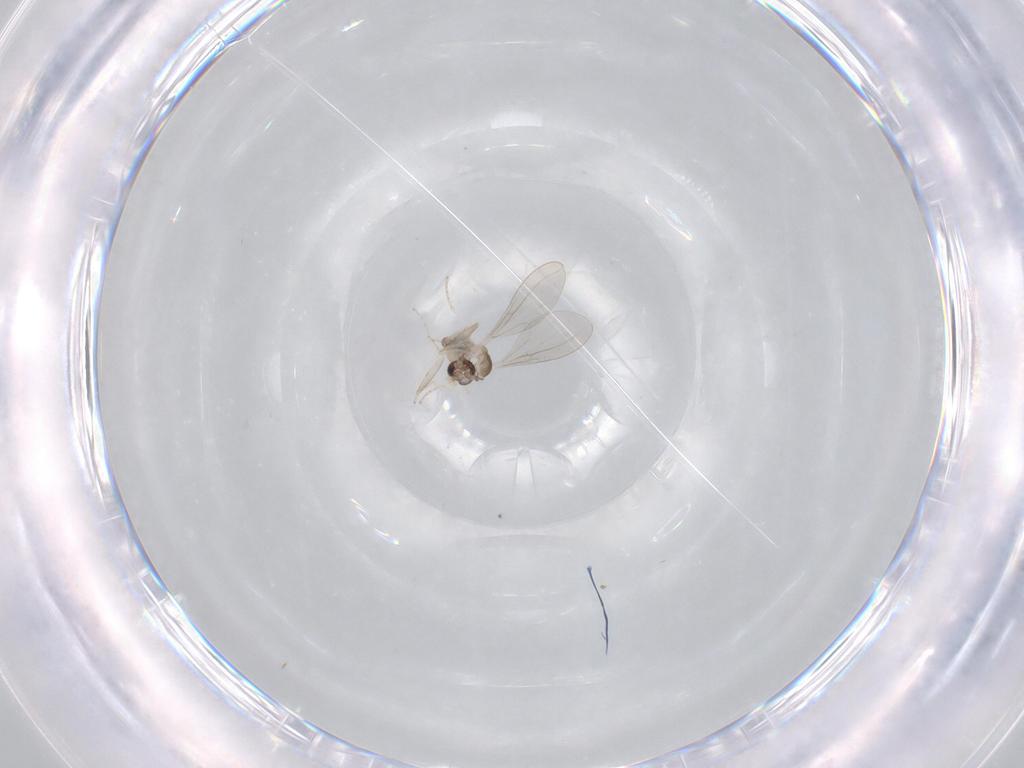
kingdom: Animalia
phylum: Arthropoda
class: Insecta
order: Diptera
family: Cecidomyiidae
